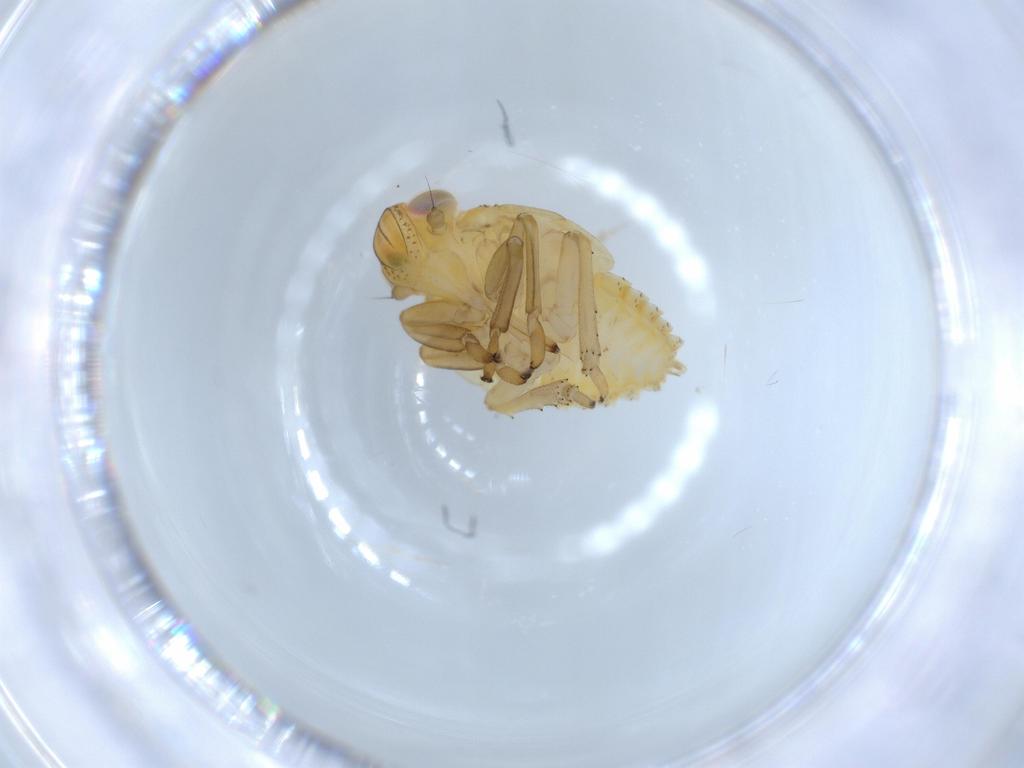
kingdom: Animalia
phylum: Arthropoda
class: Insecta
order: Hemiptera
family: Issidae
